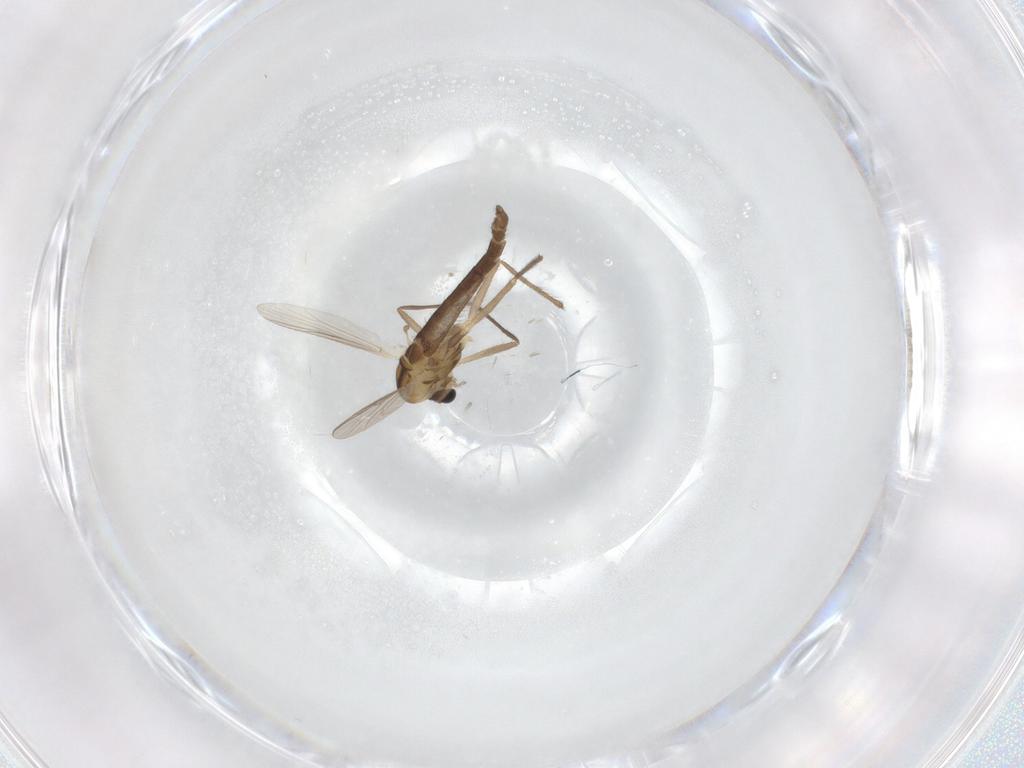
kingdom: Animalia
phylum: Arthropoda
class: Insecta
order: Diptera
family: Chironomidae
